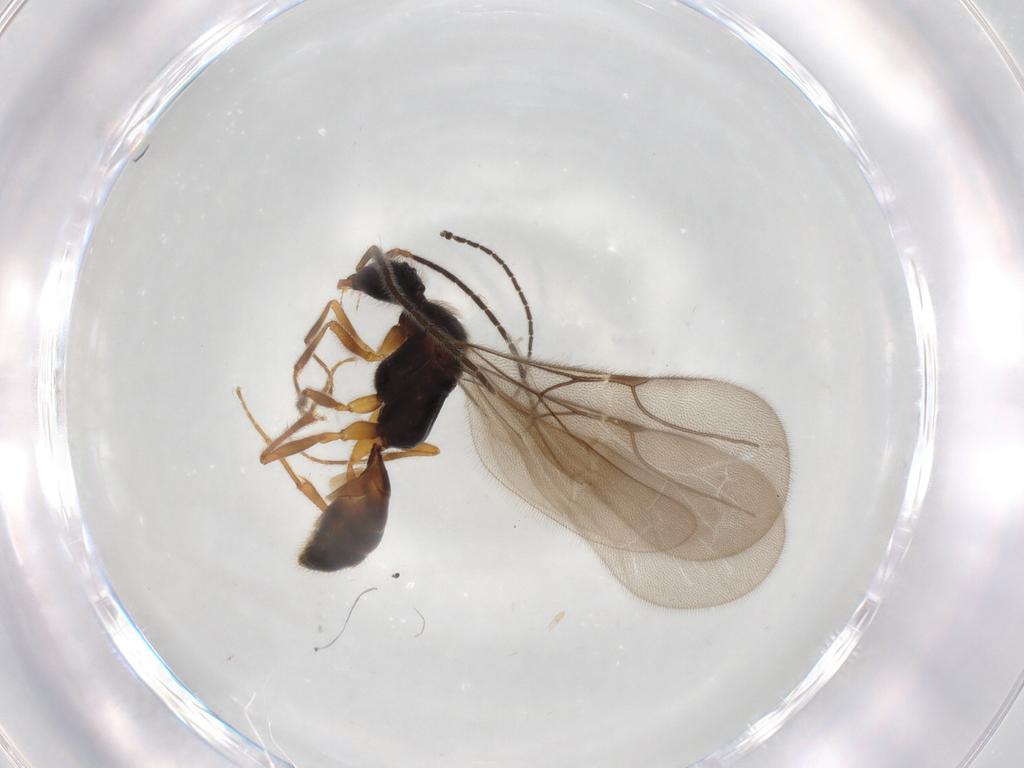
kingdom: Animalia
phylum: Arthropoda
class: Insecta
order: Hymenoptera
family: Bethylidae
